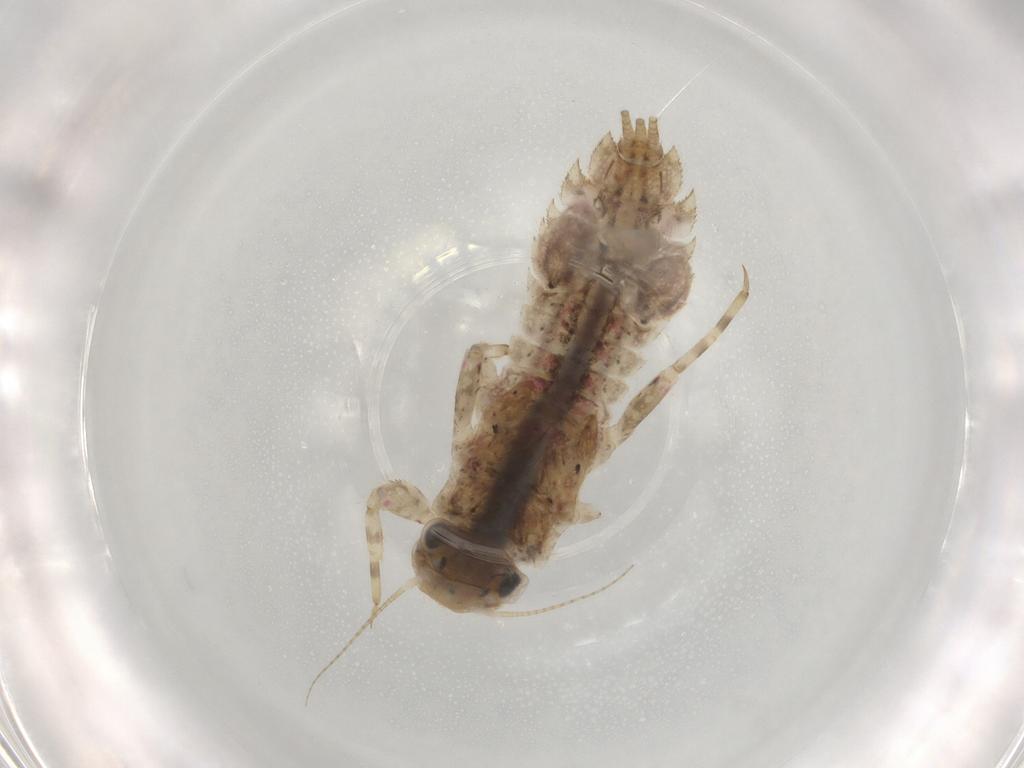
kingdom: Animalia
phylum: Arthropoda
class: Insecta
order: Ephemeroptera
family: Ephemerellidae
